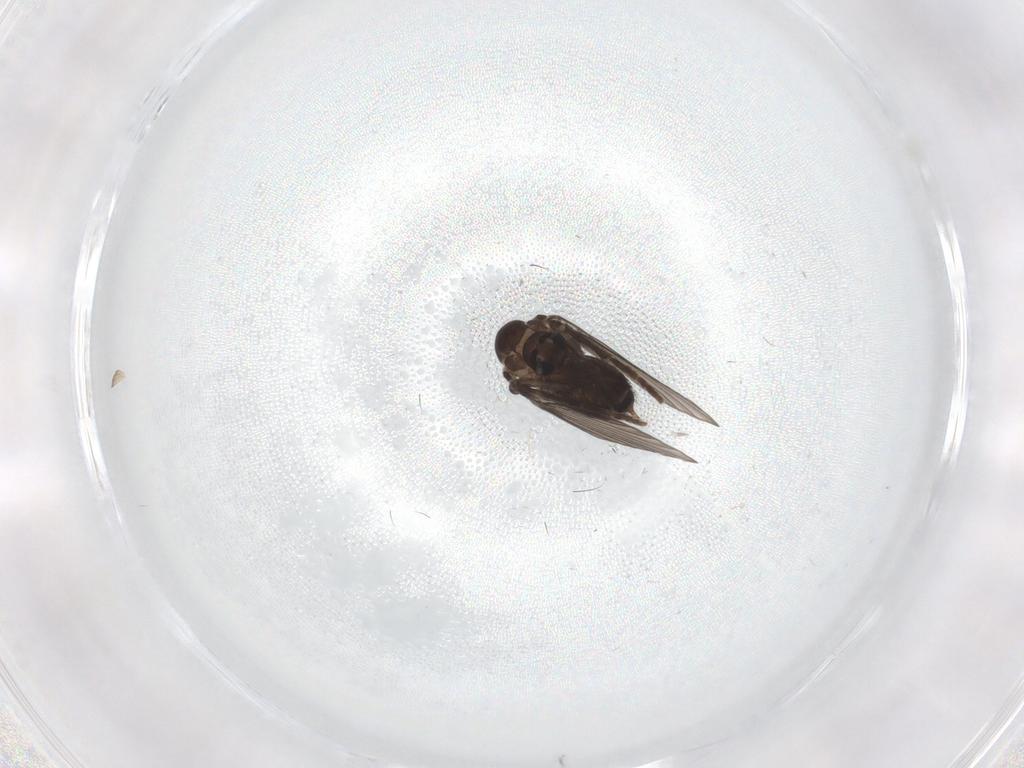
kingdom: Animalia
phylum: Arthropoda
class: Insecta
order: Diptera
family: Psychodidae
